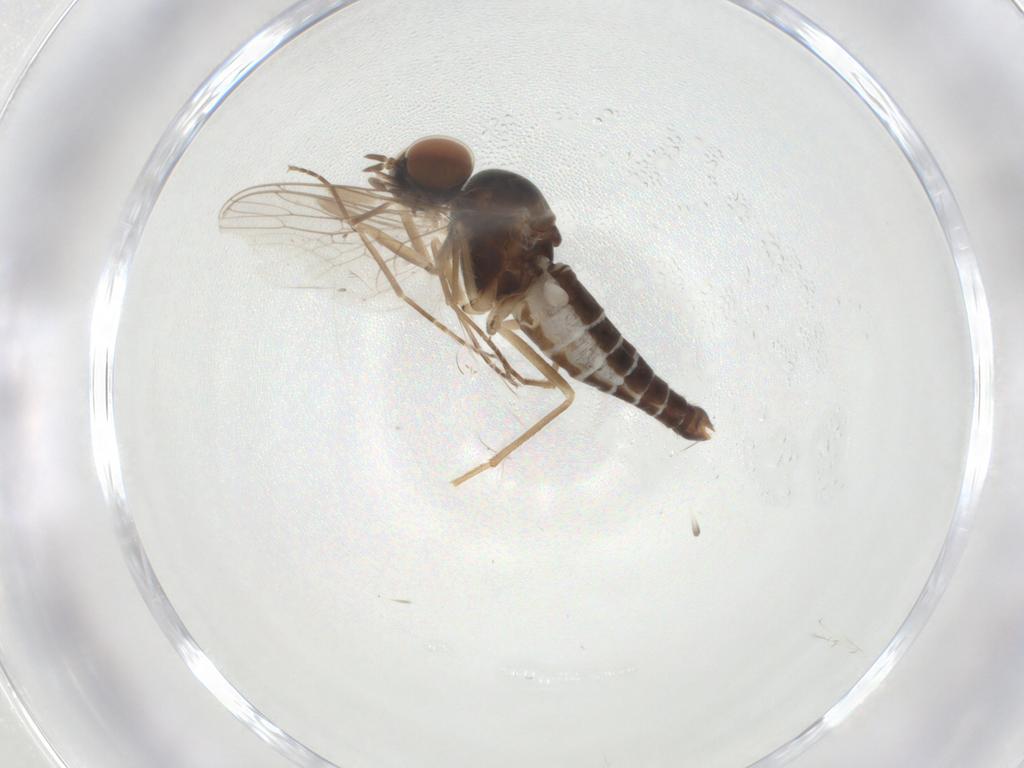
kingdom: Animalia
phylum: Arthropoda
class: Insecta
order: Diptera
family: Scenopinidae
